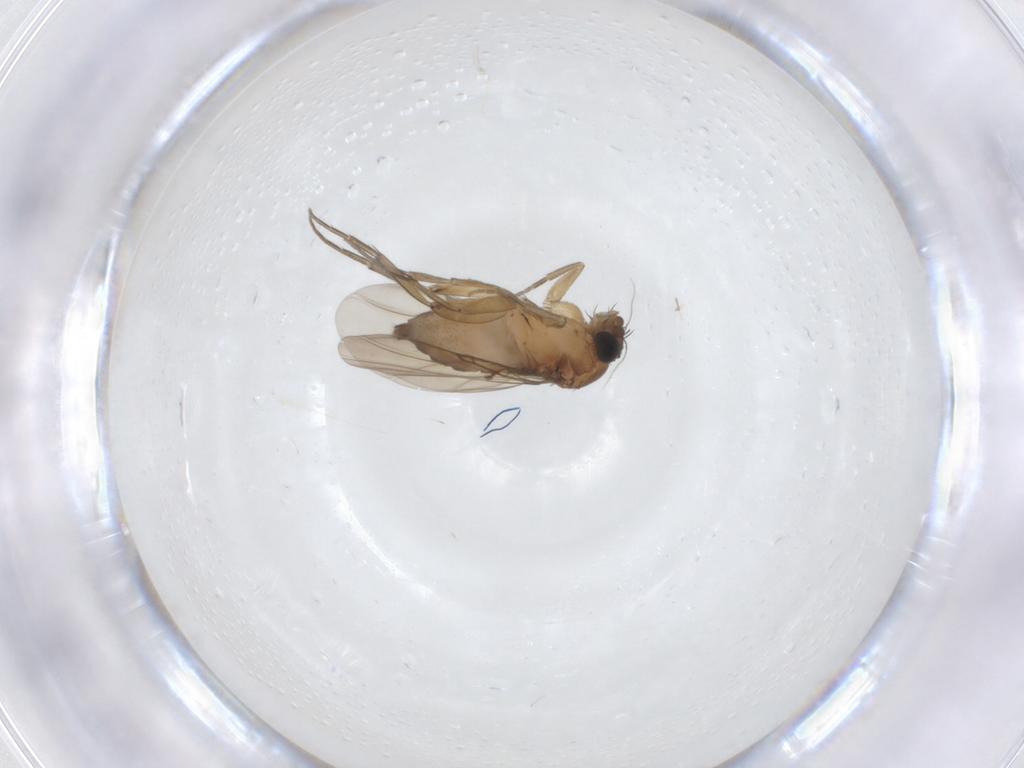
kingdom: Animalia
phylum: Arthropoda
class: Insecta
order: Diptera
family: Phoridae
